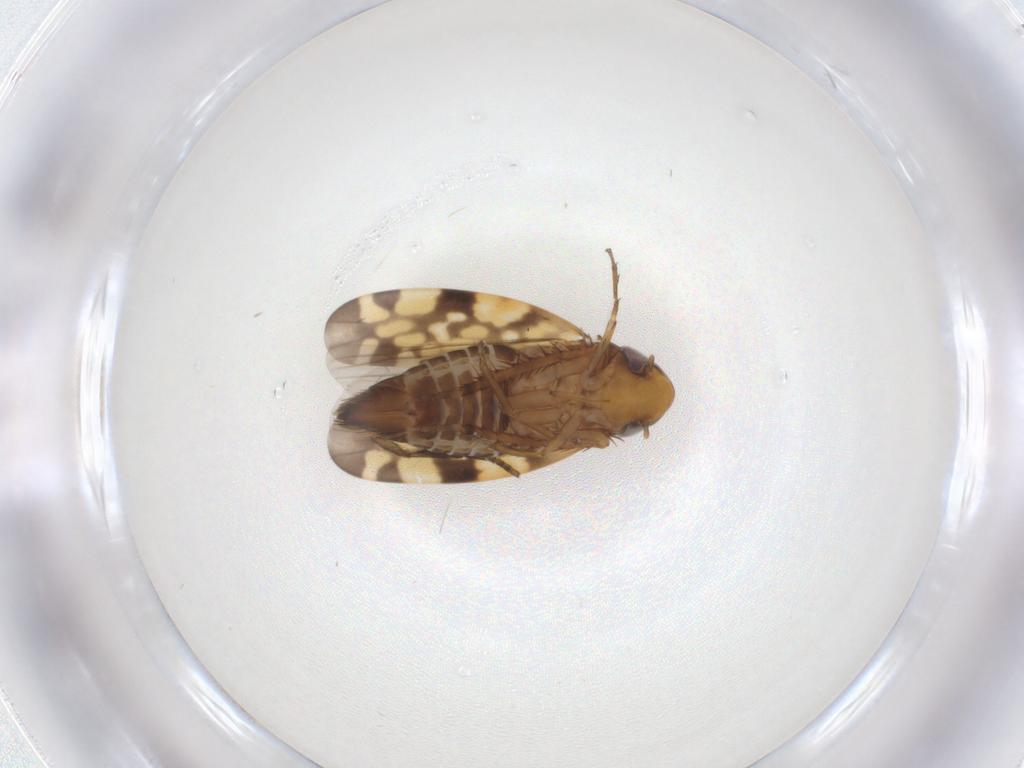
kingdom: Animalia
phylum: Arthropoda
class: Insecta
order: Hemiptera
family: Cicadellidae
